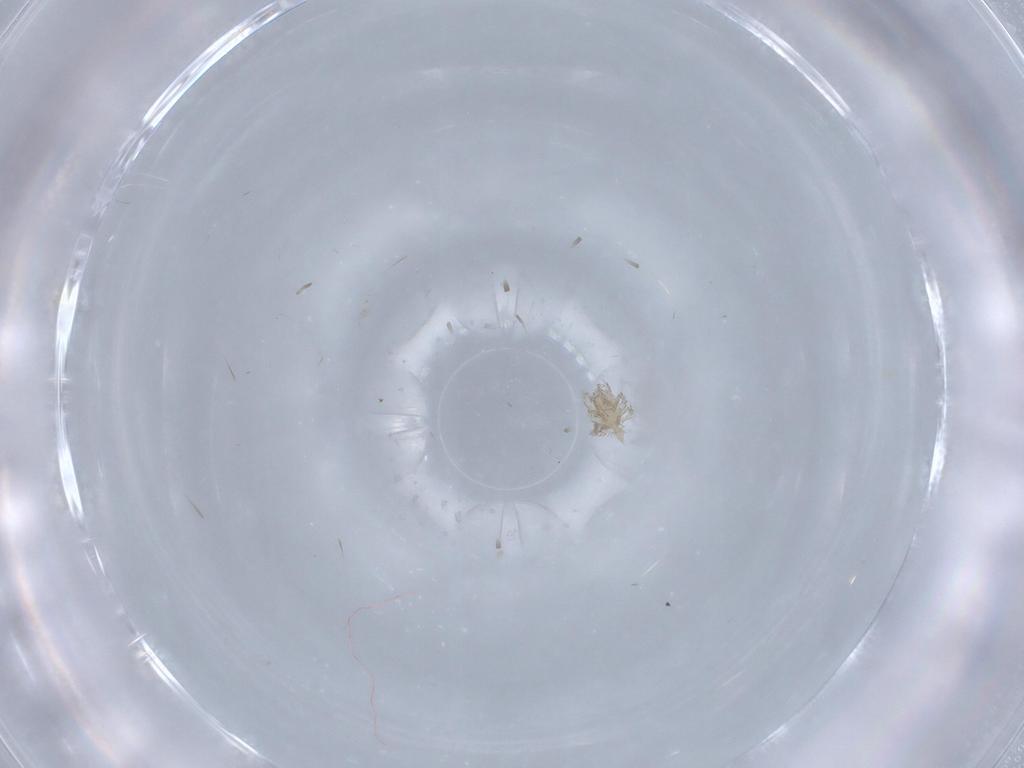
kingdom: Animalia
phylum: Arthropoda
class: Arachnida
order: Trombidiformes
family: Erythraeidae
